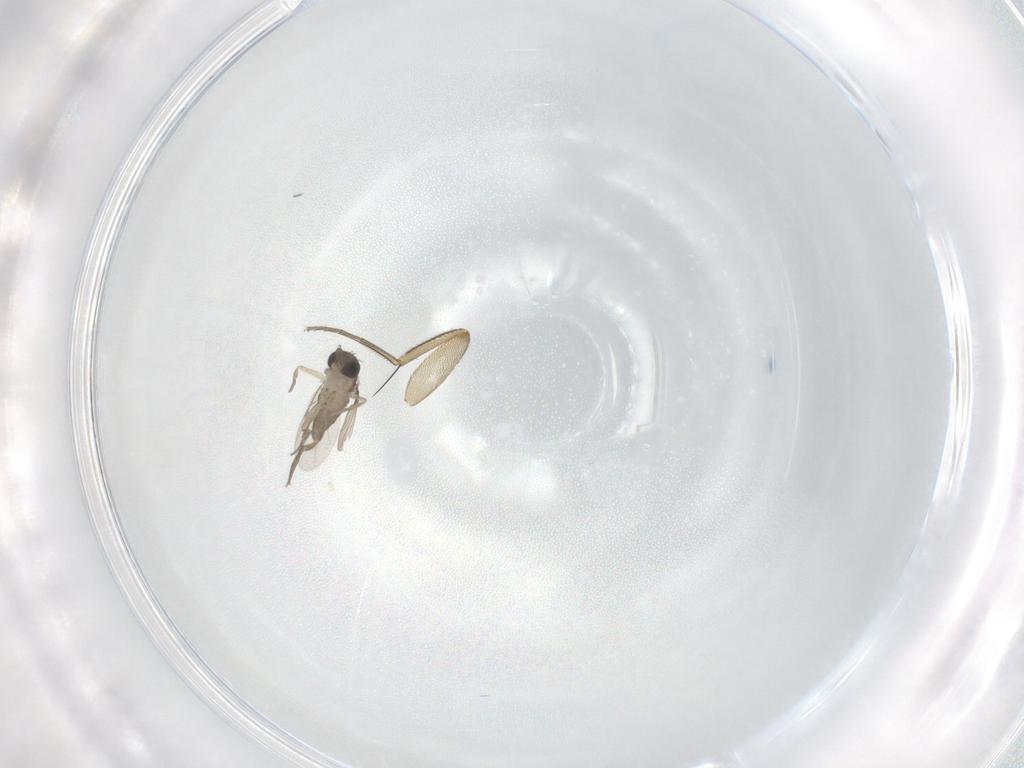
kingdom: Animalia
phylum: Arthropoda
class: Insecta
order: Diptera
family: Phoridae
